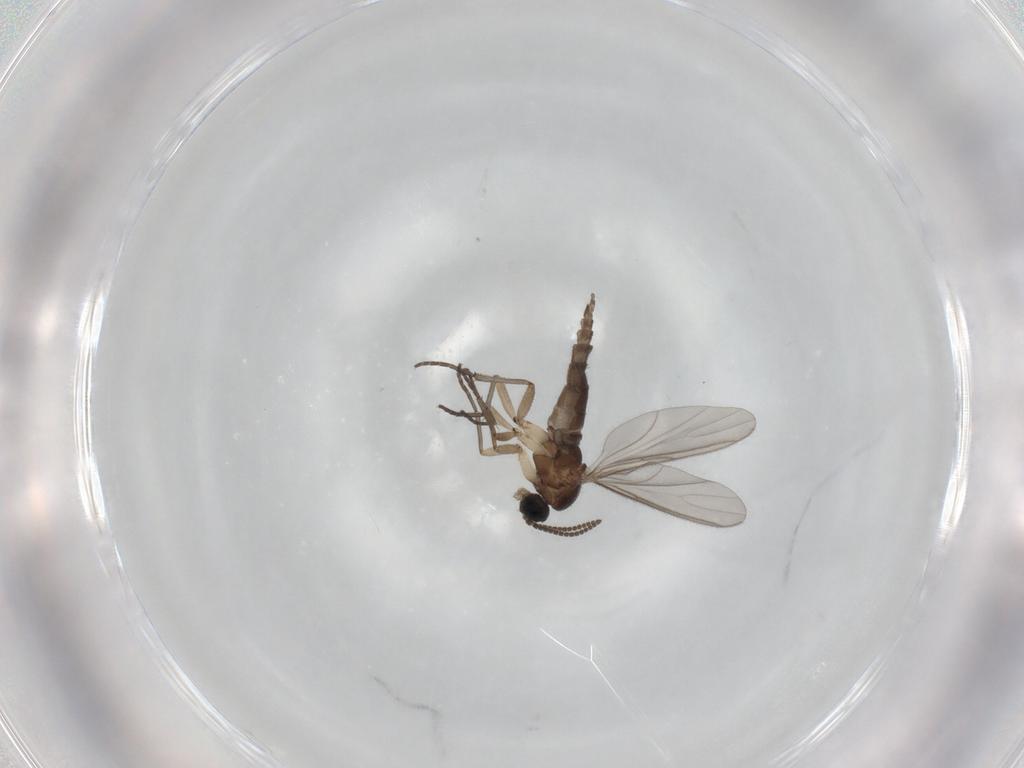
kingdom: Animalia
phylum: Arthropoda
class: Insecta
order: Diptera
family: Sciaridae
